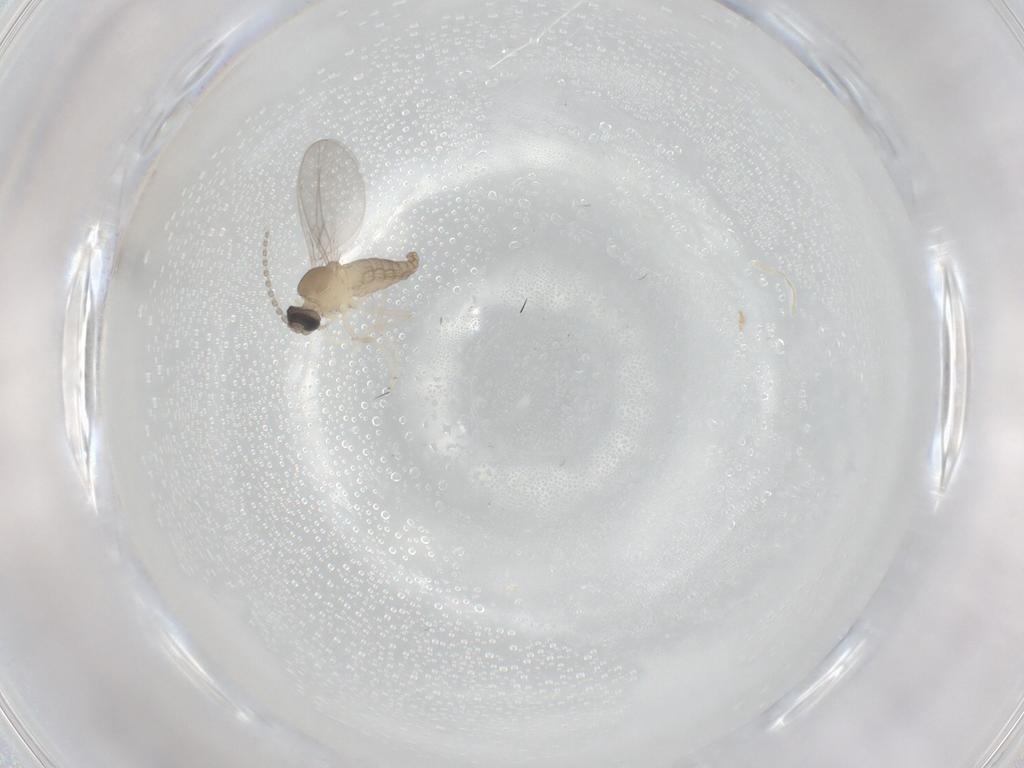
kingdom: Animalia
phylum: Arthropoda
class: Insecta
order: Diptera
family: Cecidomyiidae
